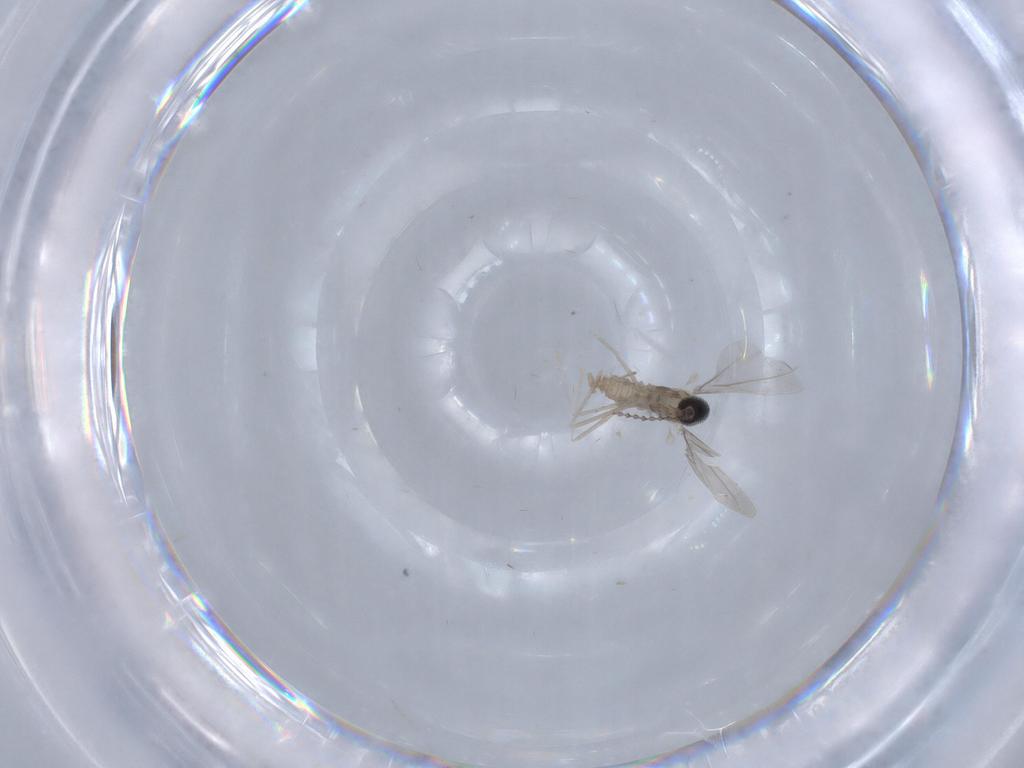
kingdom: Animalia
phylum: Arthropoda
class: Insecta
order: Diptera
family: Cecidomyiidae
